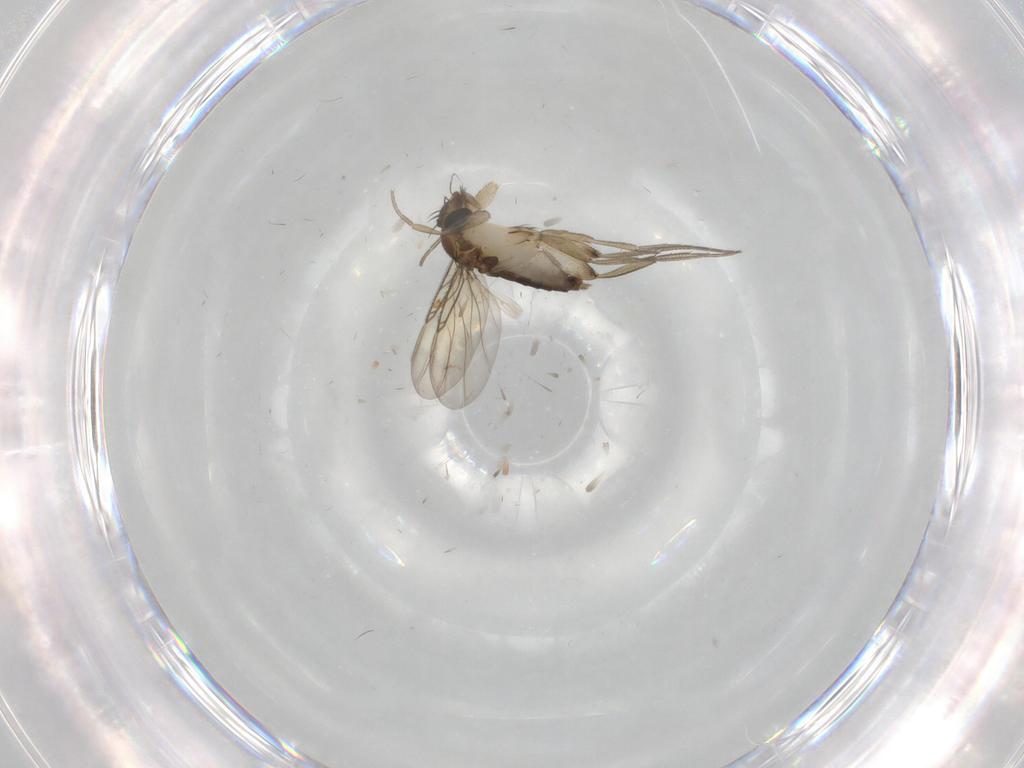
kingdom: Animalia
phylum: Arthropoda
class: Insecta
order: Diptera
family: Phoridae
